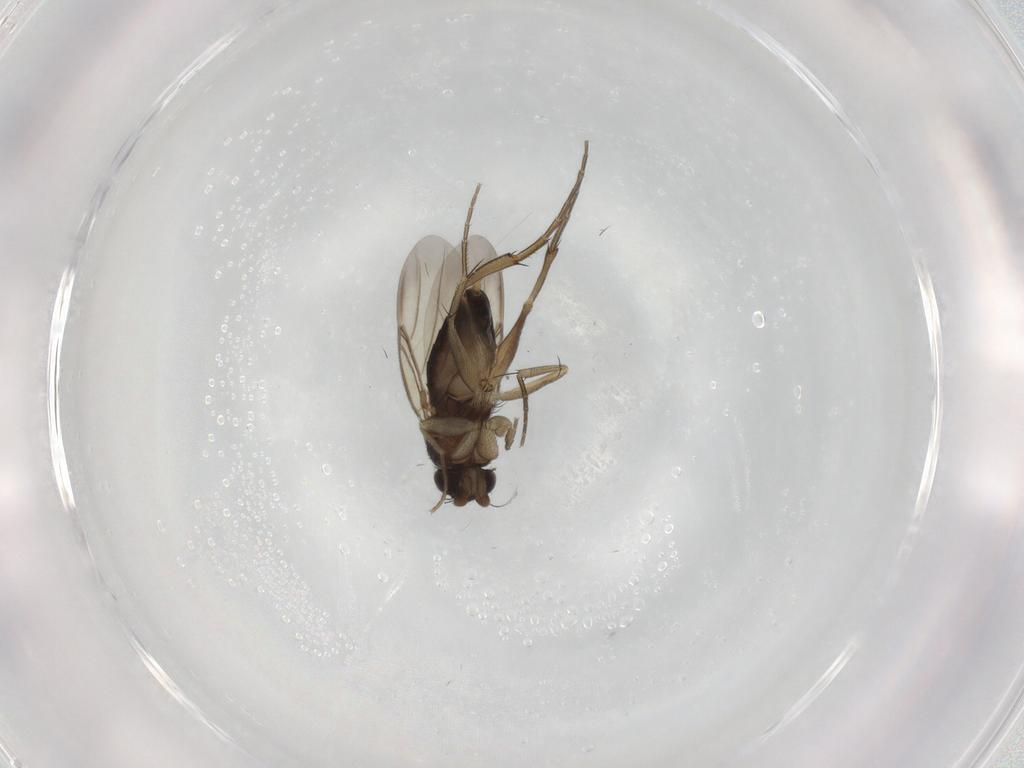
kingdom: Animalia
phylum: Arthropoda
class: Insecta
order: Diptera
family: Phoridae
